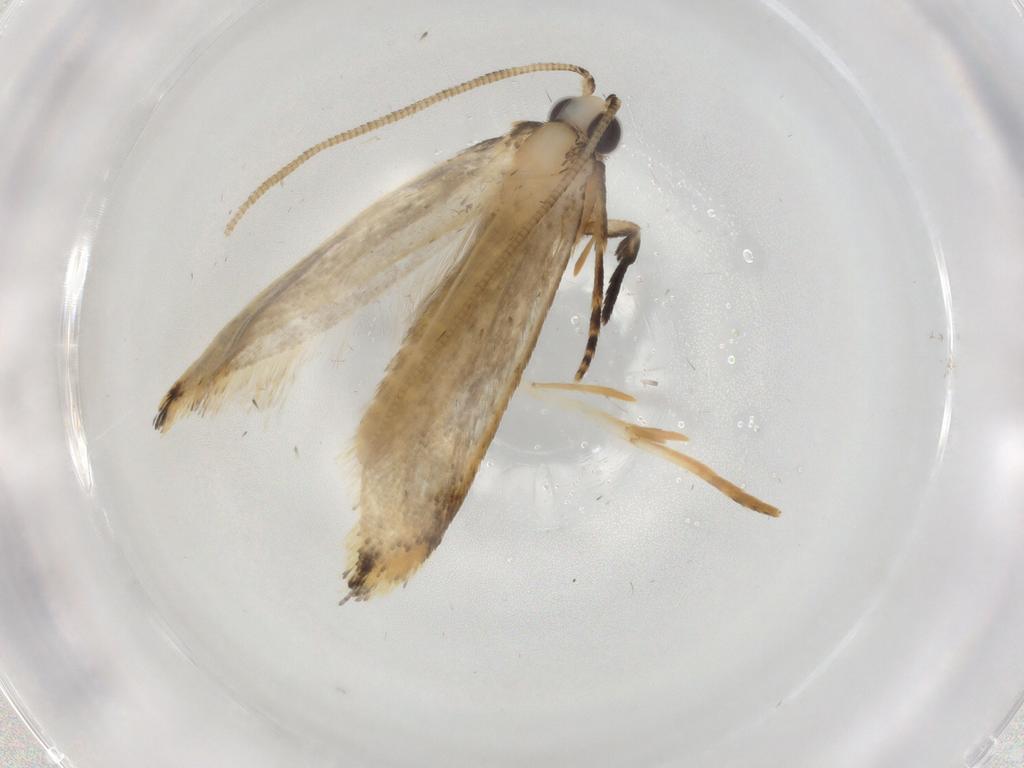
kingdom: Animalia
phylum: Arthropoda
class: Insecta
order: Lepidoptera
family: Tineidae
